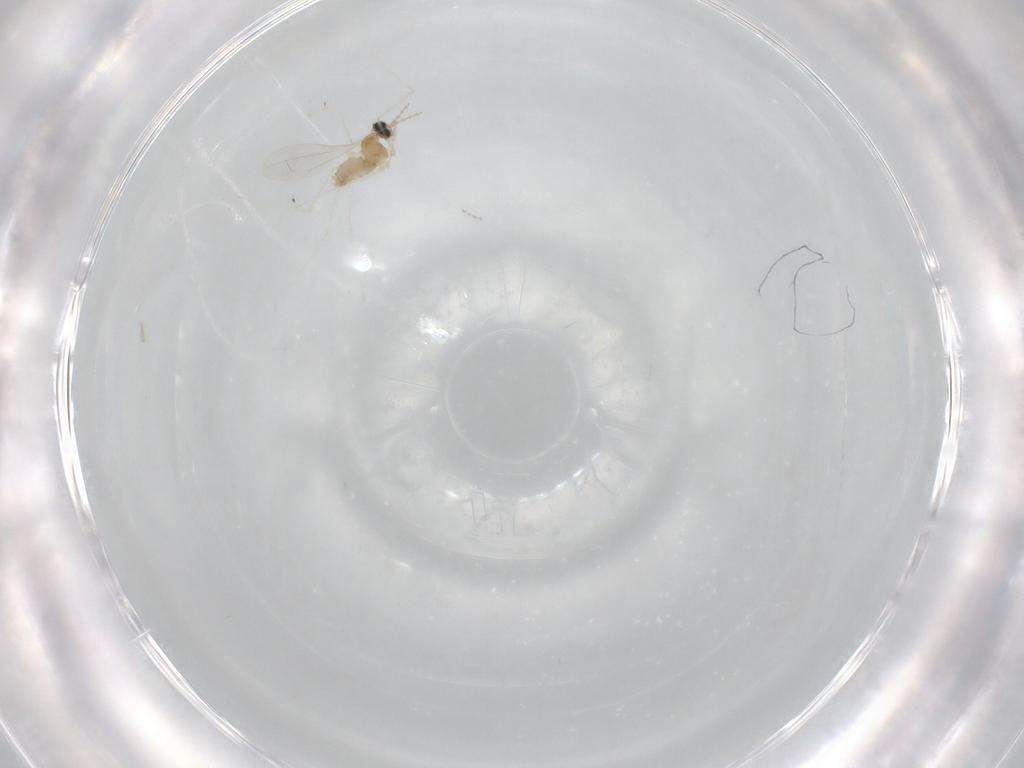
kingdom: Animalia
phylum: Arthropoda
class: Insecta
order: Diptera
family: Cecidomyiidae
